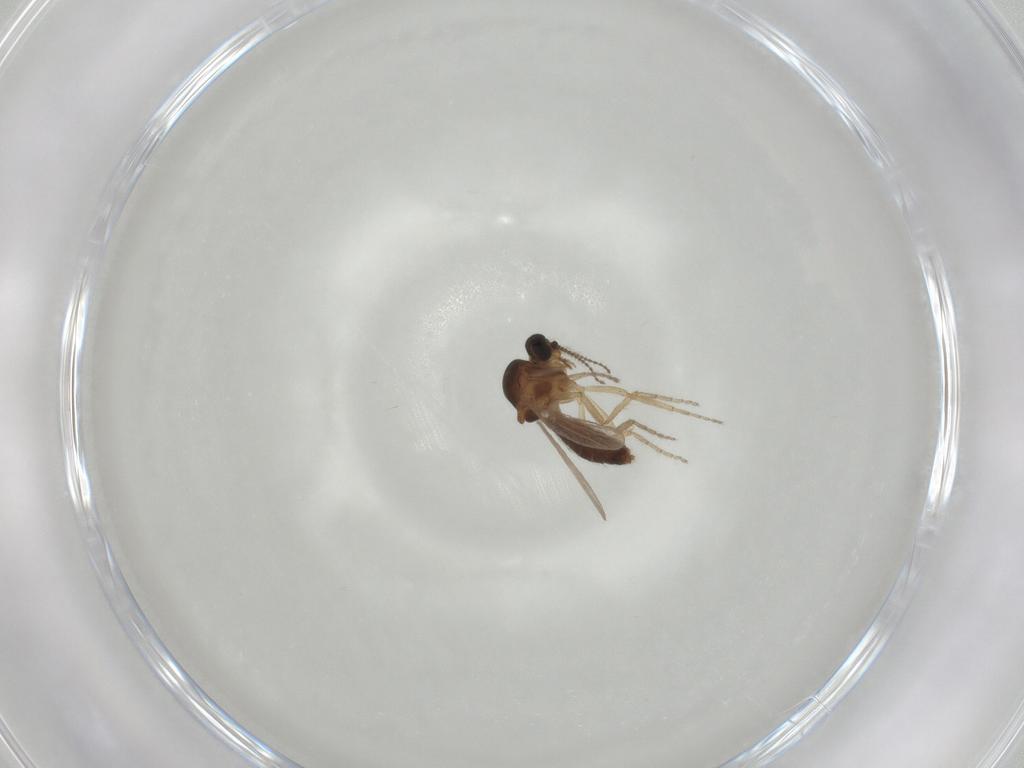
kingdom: Animalia
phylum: Arthropoda
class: Insecta
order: Diptera
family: Ceratopogonidae
